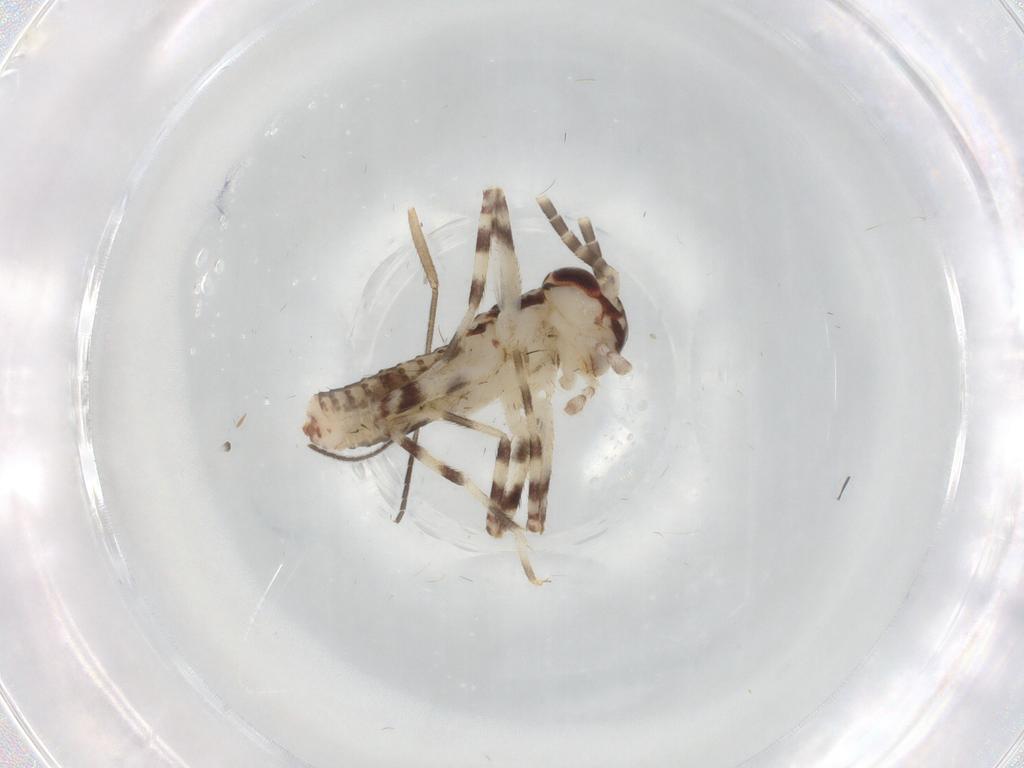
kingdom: Animalia
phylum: Arthropoda
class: Insecta
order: Orthoptera
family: Gryllidae
